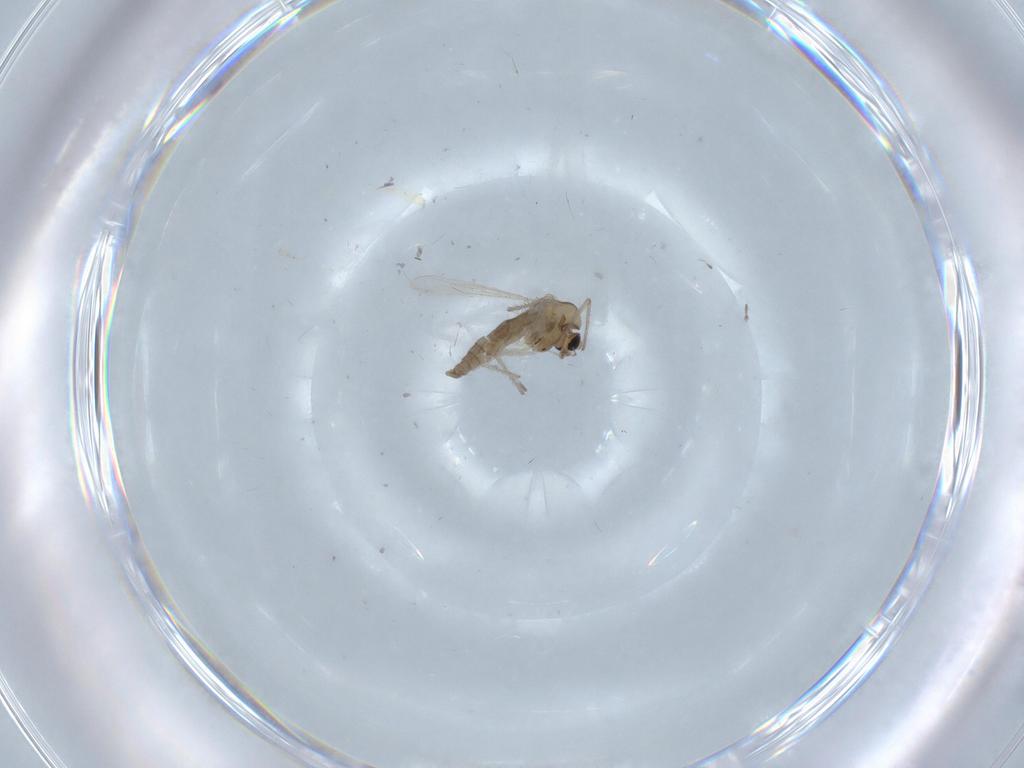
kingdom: Animalia
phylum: Arthropoda
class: Insecta
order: Diptera
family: Chironomidae
